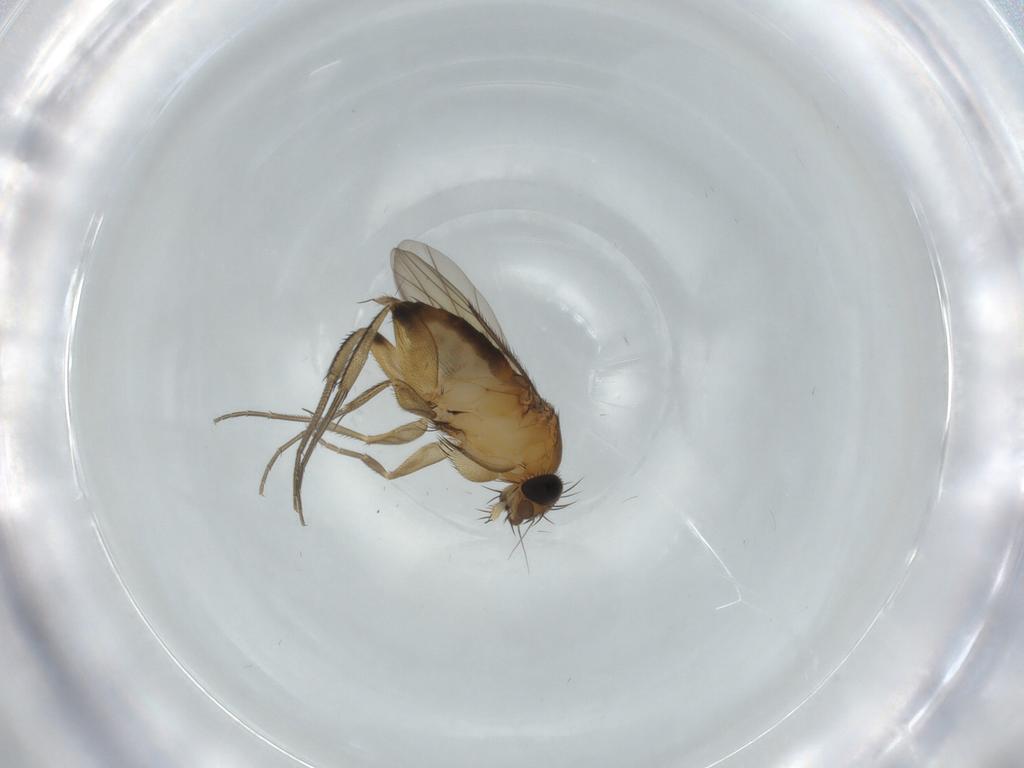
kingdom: Animalia
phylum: Arthropoda
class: Insecta
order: Diptera
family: Phoridae
